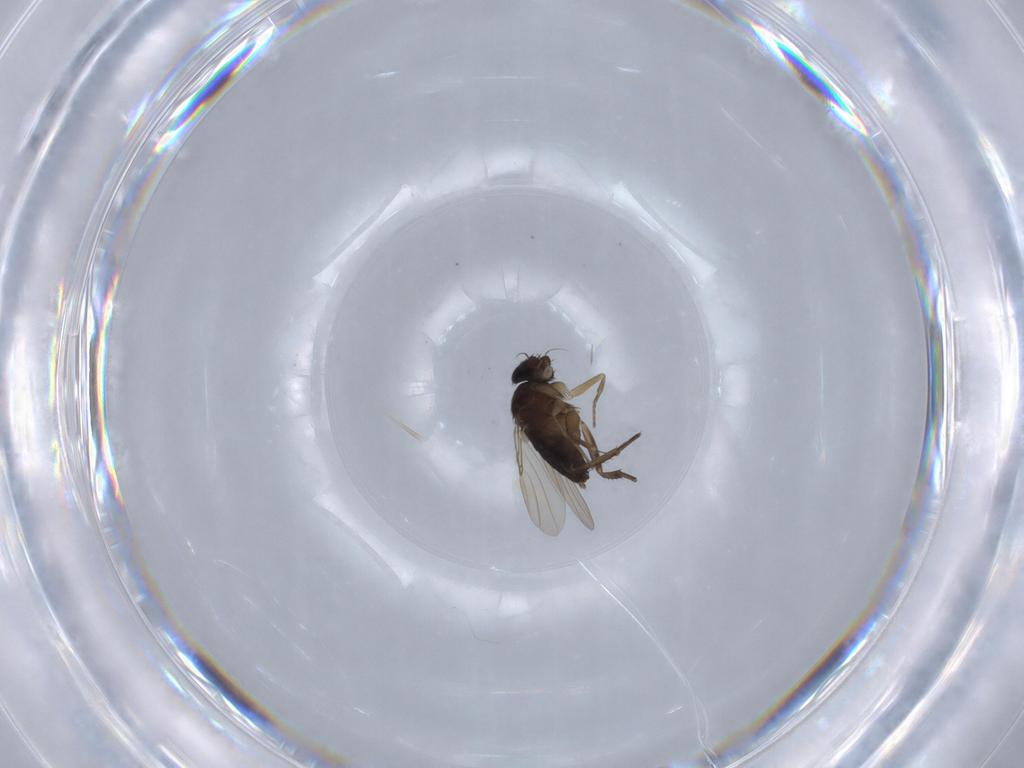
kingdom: Animalia
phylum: Arthropoda
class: Insecta
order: Diptera
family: Phoridae
